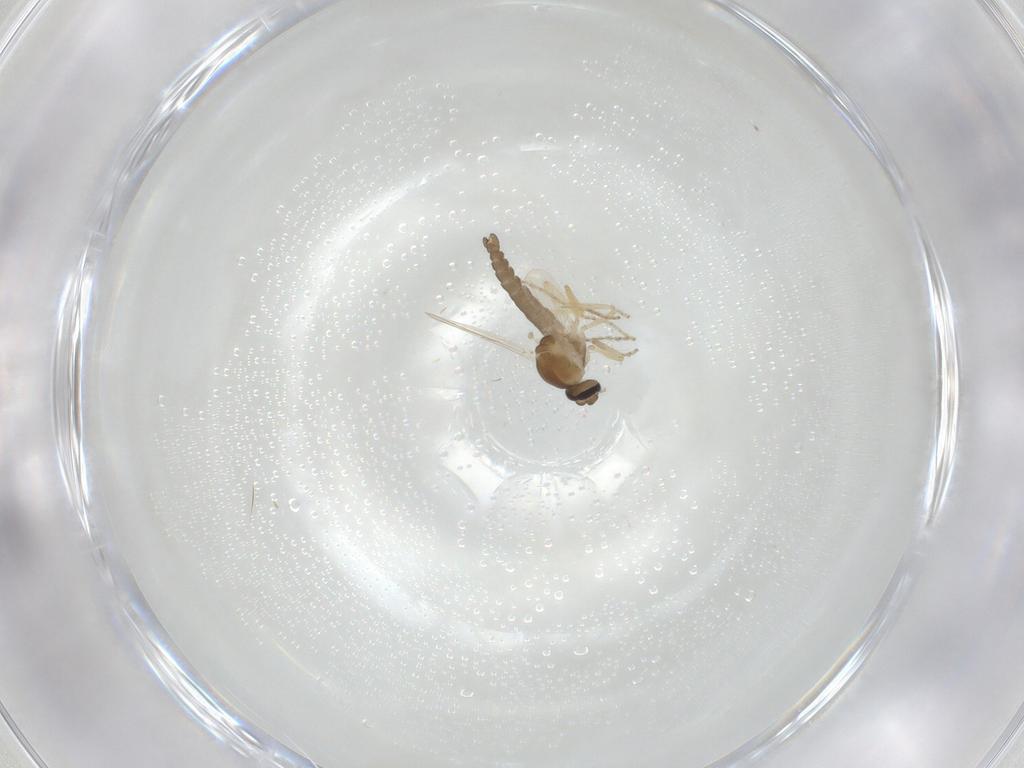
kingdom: Animalia
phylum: Arthropoda
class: Insecta
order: Diptera
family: Ceratopogonidae
